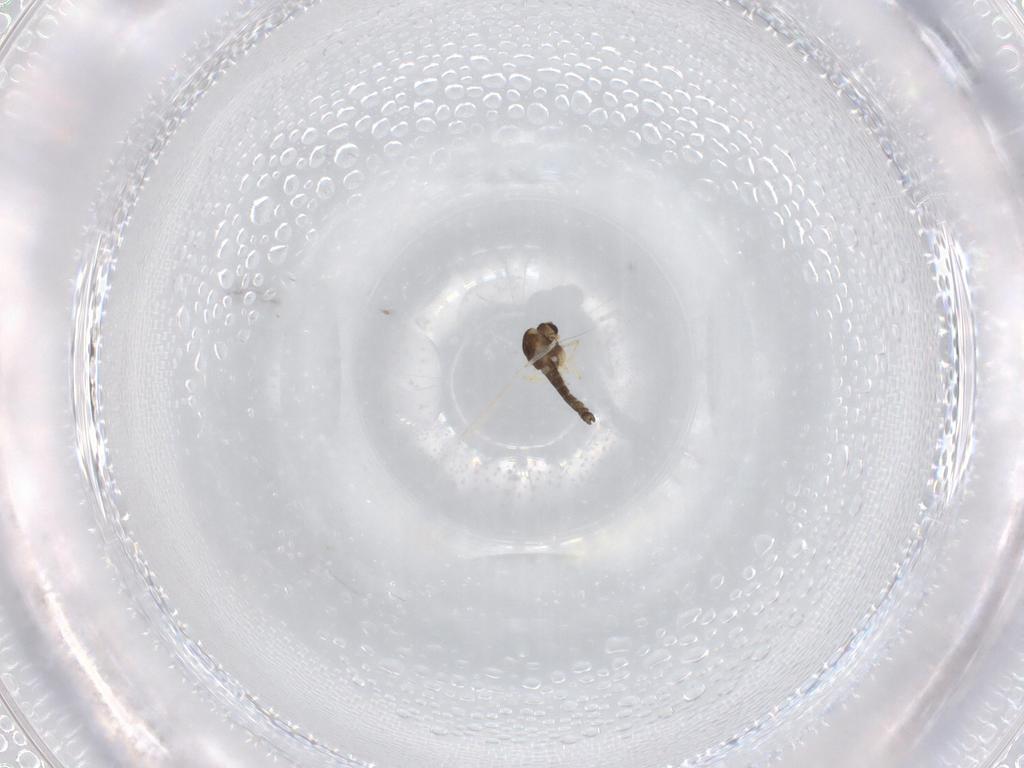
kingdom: Animalia
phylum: Arthropoda
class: Insecta
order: Diptera
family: Chironomidae
